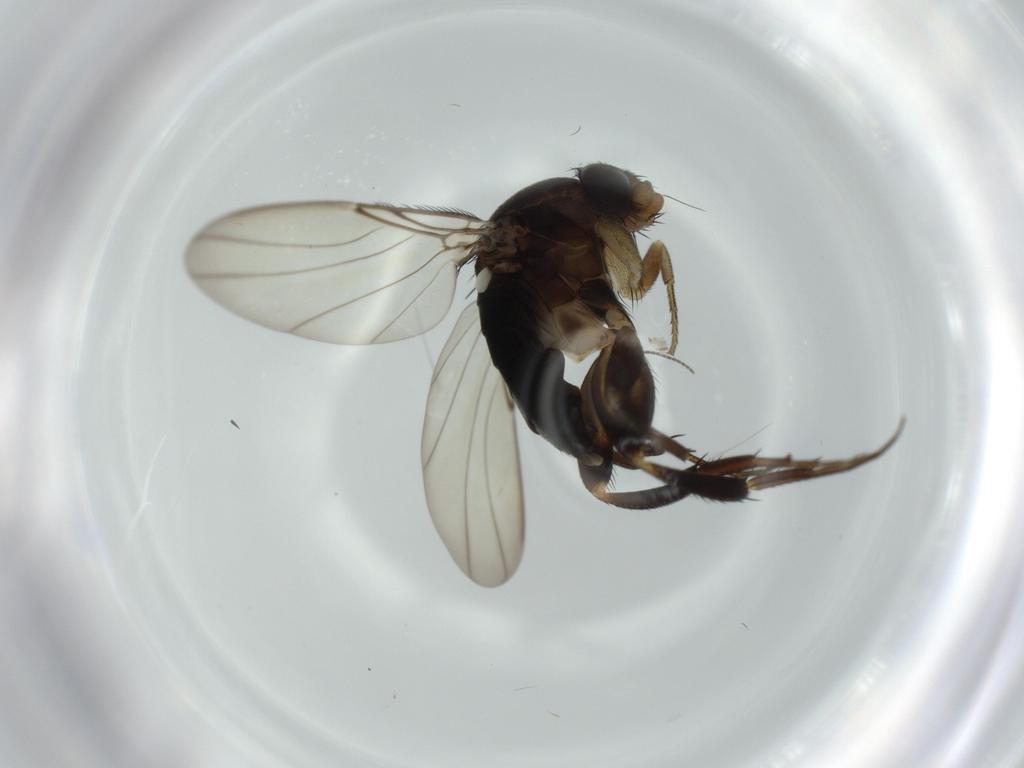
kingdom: Animalia
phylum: Arthropoda
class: Insecta
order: Diptera
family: Phoridae
